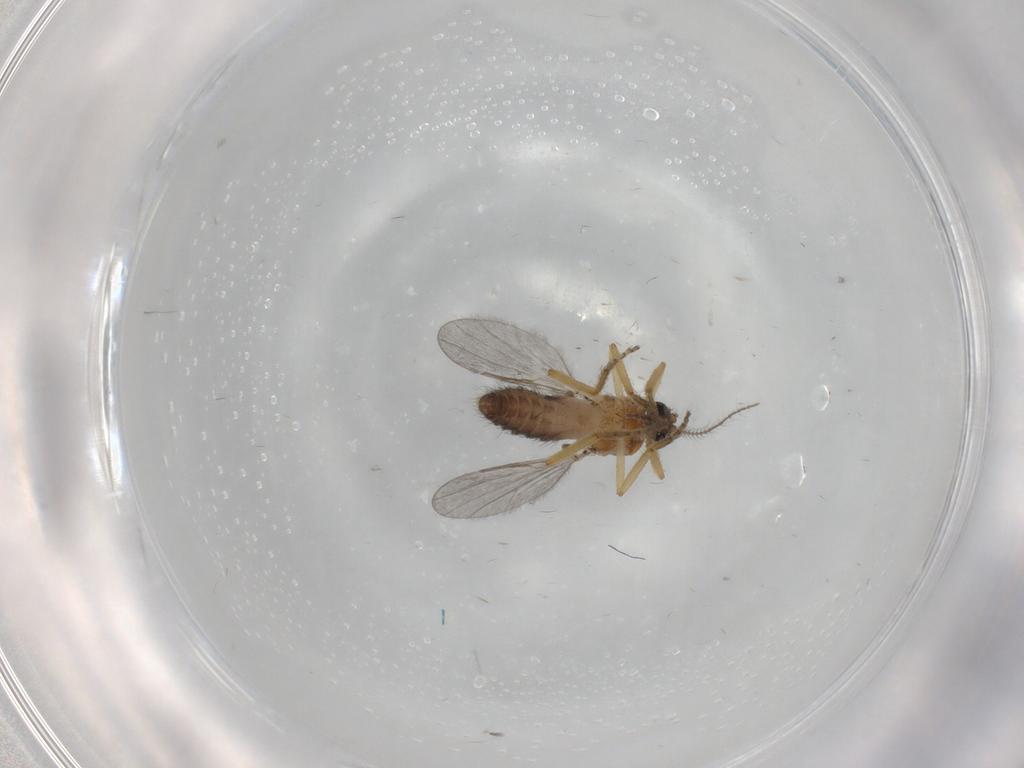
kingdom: Animalia
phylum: Arthropoda
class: Insecta
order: Diptera
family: Ceratopogonidae
